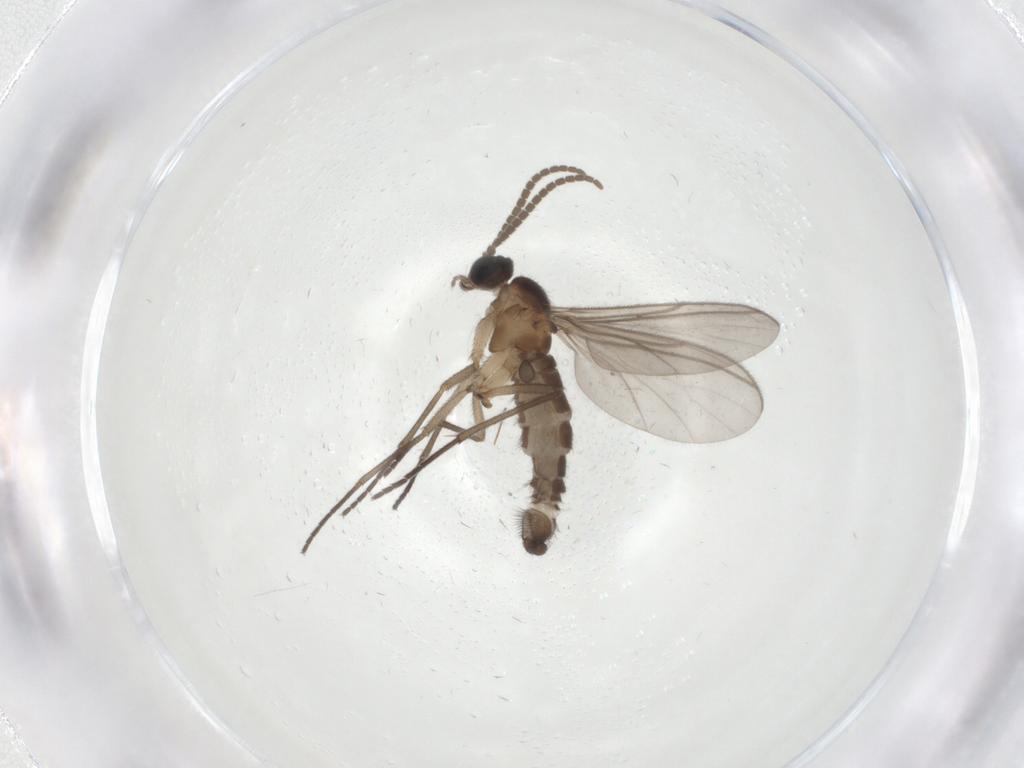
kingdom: Animalia
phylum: Arthropoda
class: Insecta
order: Diptera
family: Chironomidae
